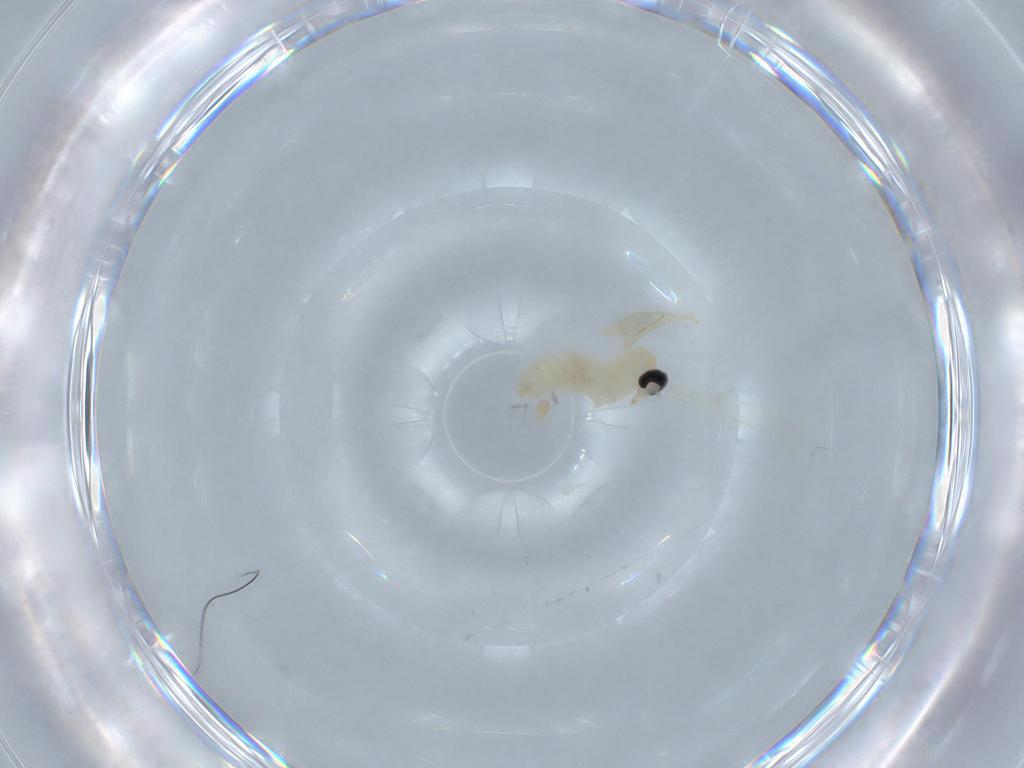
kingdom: Animalia
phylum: Arthropoda
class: Insecta
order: Diptera
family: Cecidomyiidae
